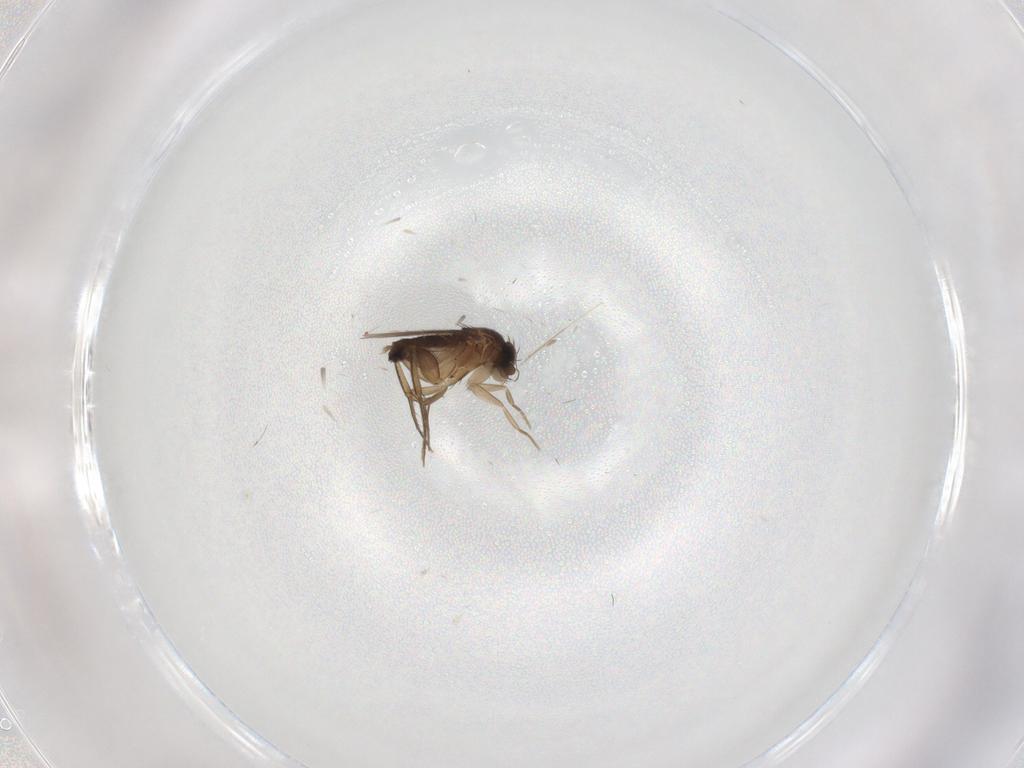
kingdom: Animalia
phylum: Arthropoda
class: Insecta
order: Diptera
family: Phoridae
